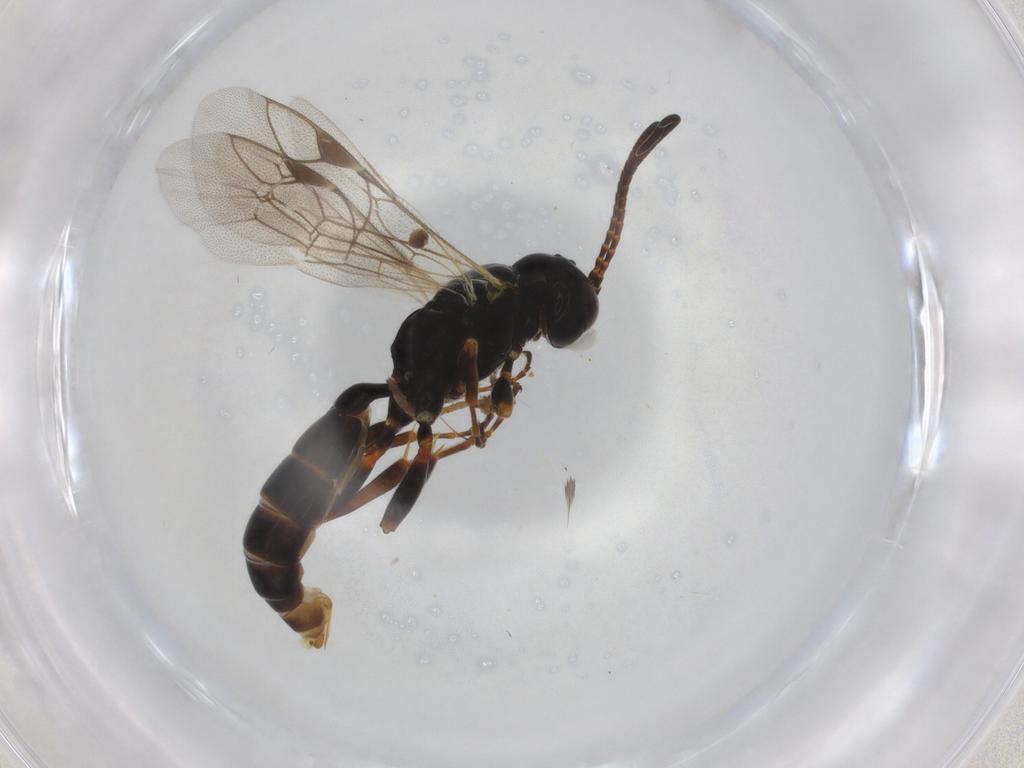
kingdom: Animalia
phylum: Arthropoda
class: Insecta
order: Hymenoptera
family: Ichneumonidae
